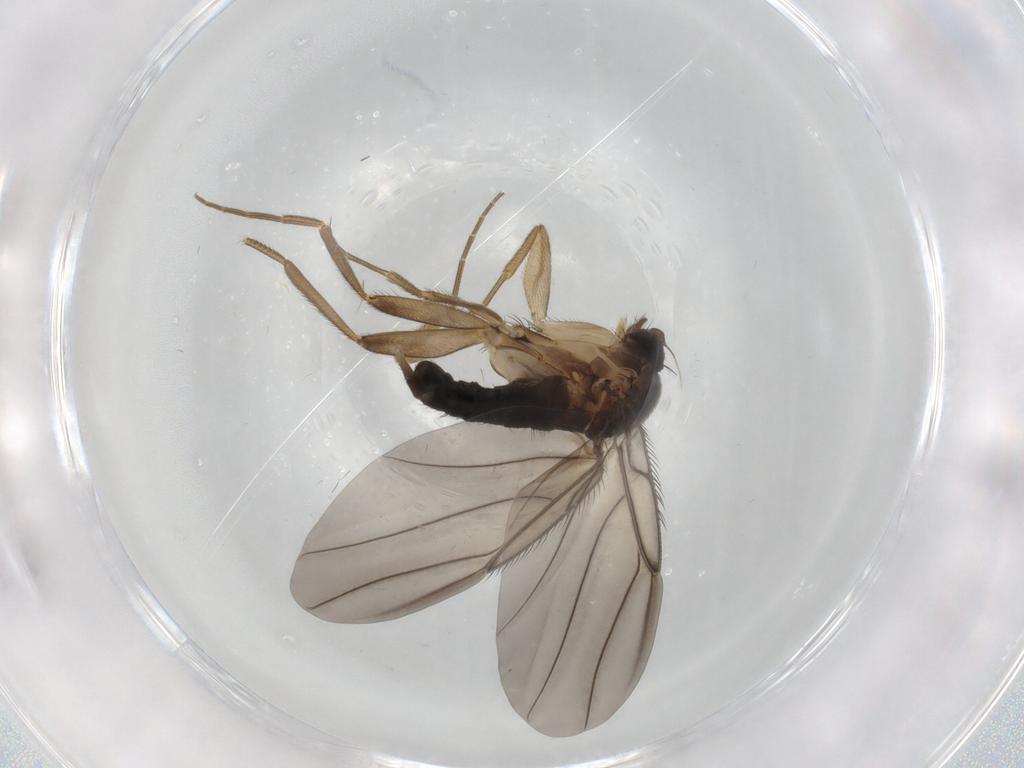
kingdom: Animalia
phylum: Arthropoda
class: Insecta
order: Diptera
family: Phoridae
